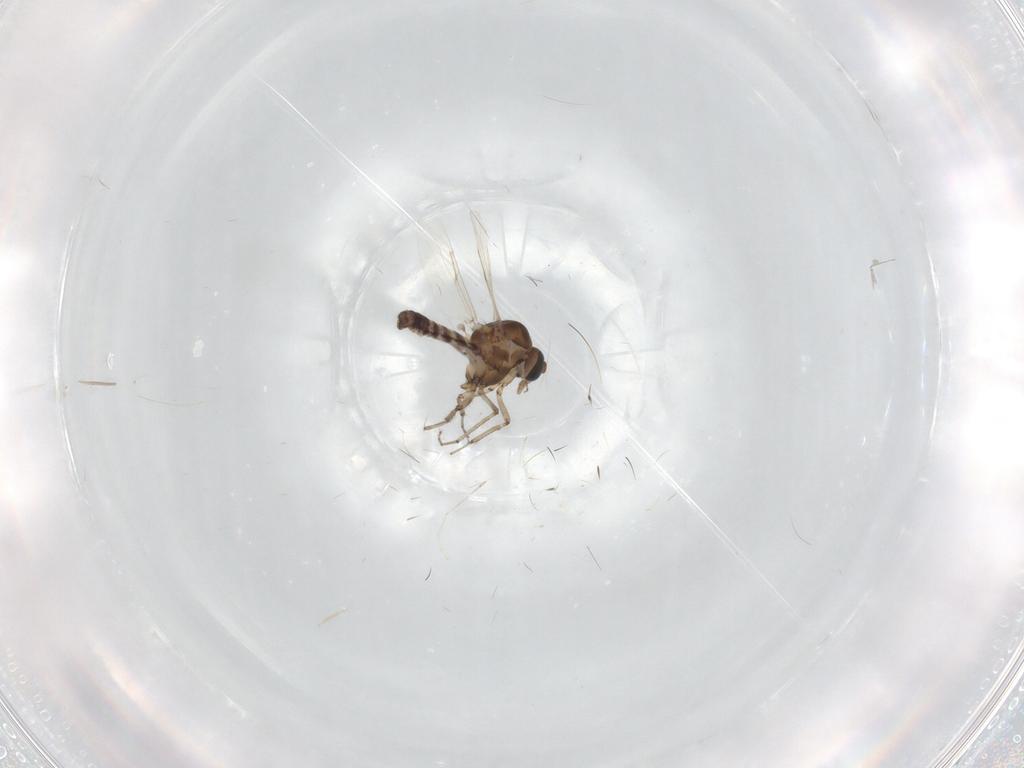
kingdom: Animalia
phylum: Arthropoda
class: Insecta
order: Diptera
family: Ceratopogonidae
